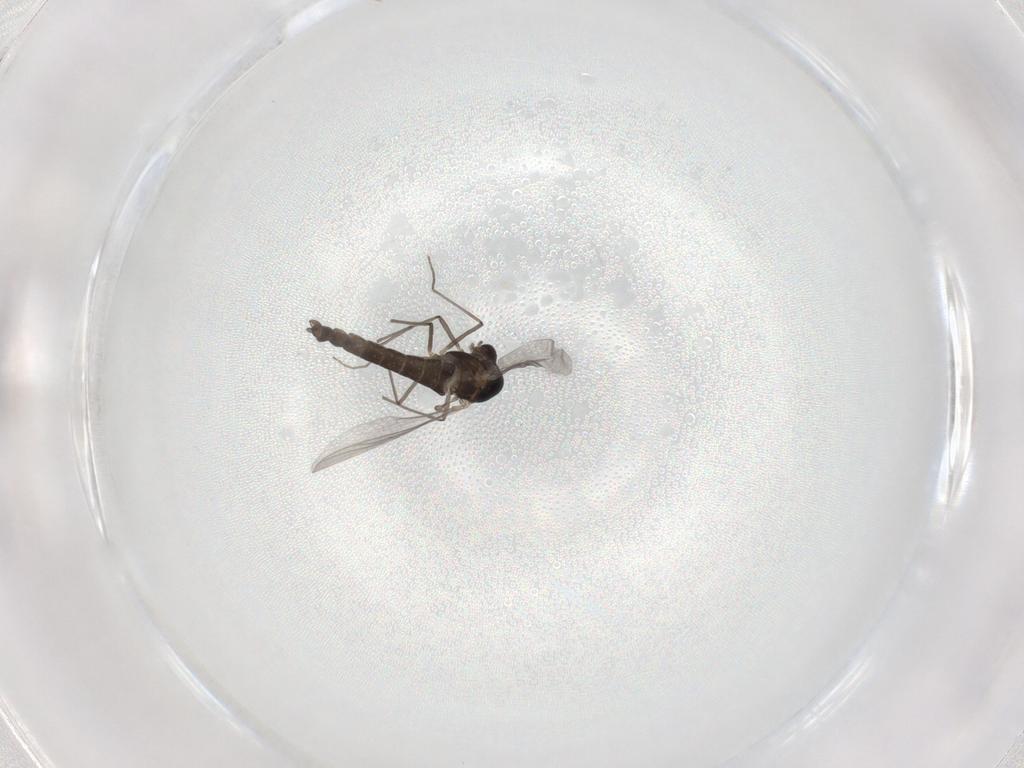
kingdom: Animalia
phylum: Arthropoda
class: Insecta
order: Diptera
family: Chironomidae
